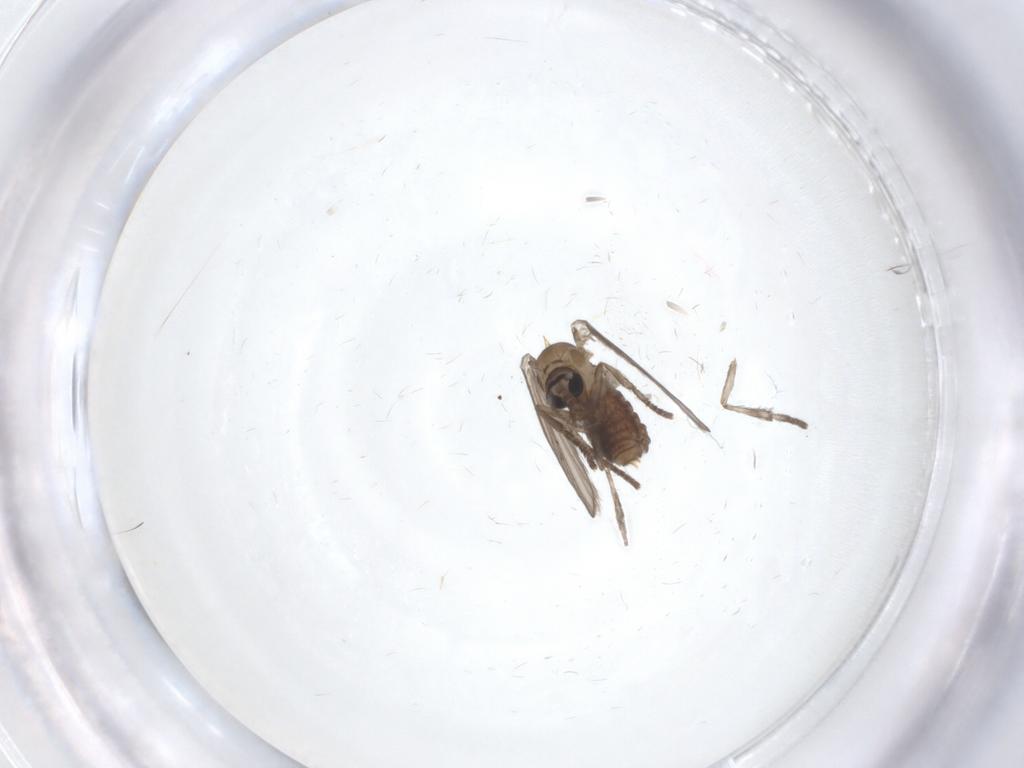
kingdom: Animalia
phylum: Arthropoda
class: Insecta
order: Diptera
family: Psychodidae
